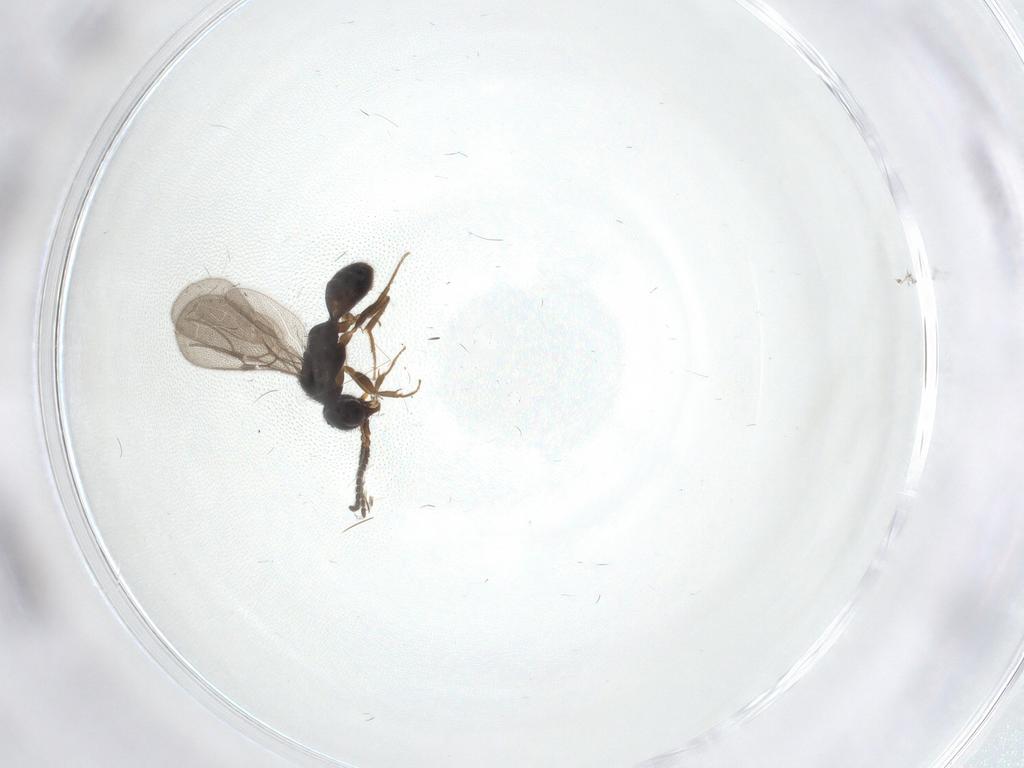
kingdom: Animalia
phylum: Arthropoda
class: Insecta
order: Hymenoptera
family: Bethylidae
